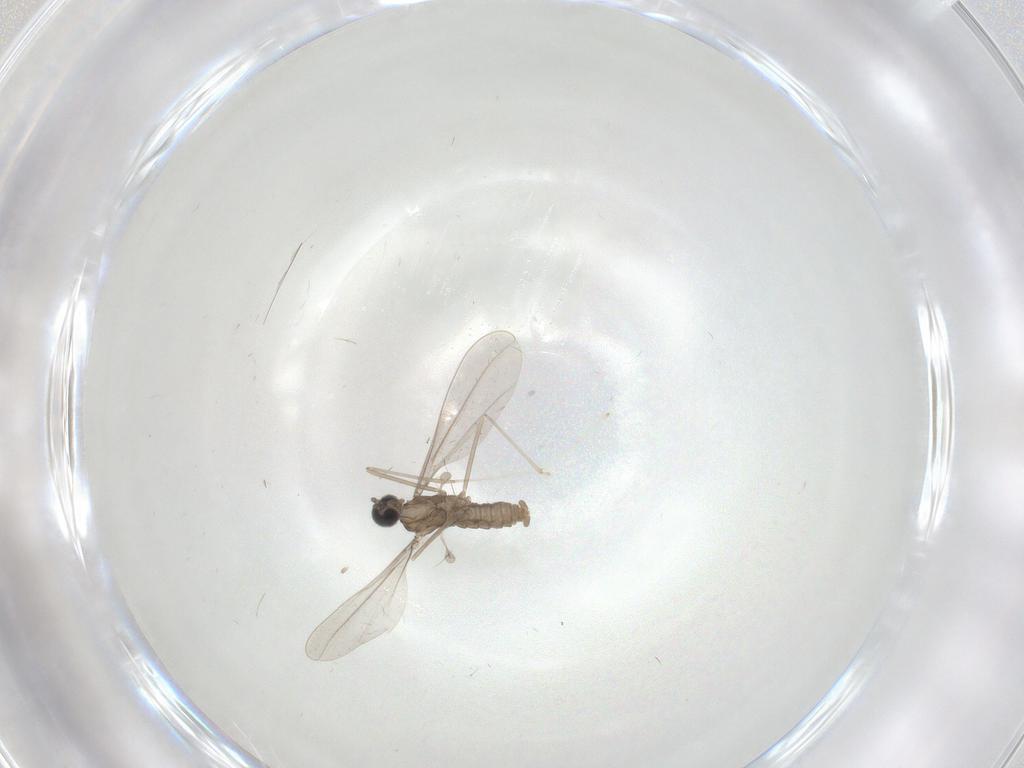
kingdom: Animalia
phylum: Arthropoda
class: Insecta
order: Diptera
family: Cecidomyiidae
